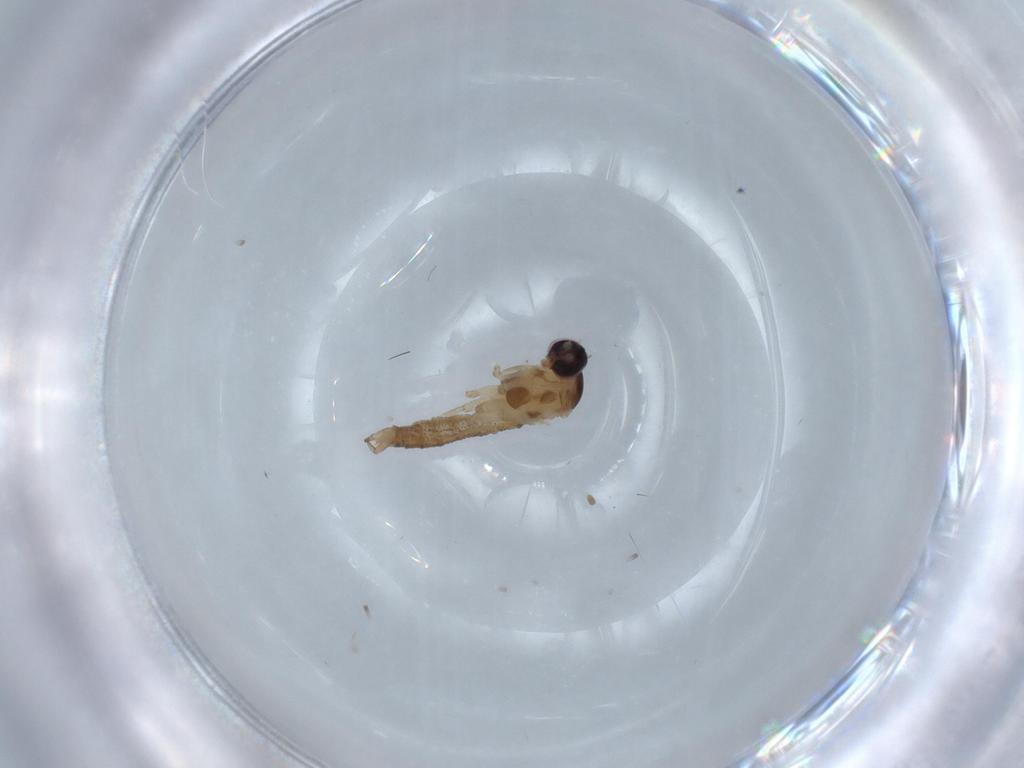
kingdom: Animalia
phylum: Arthropoda
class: Insecta
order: Diptera
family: Cecidomyiidae
